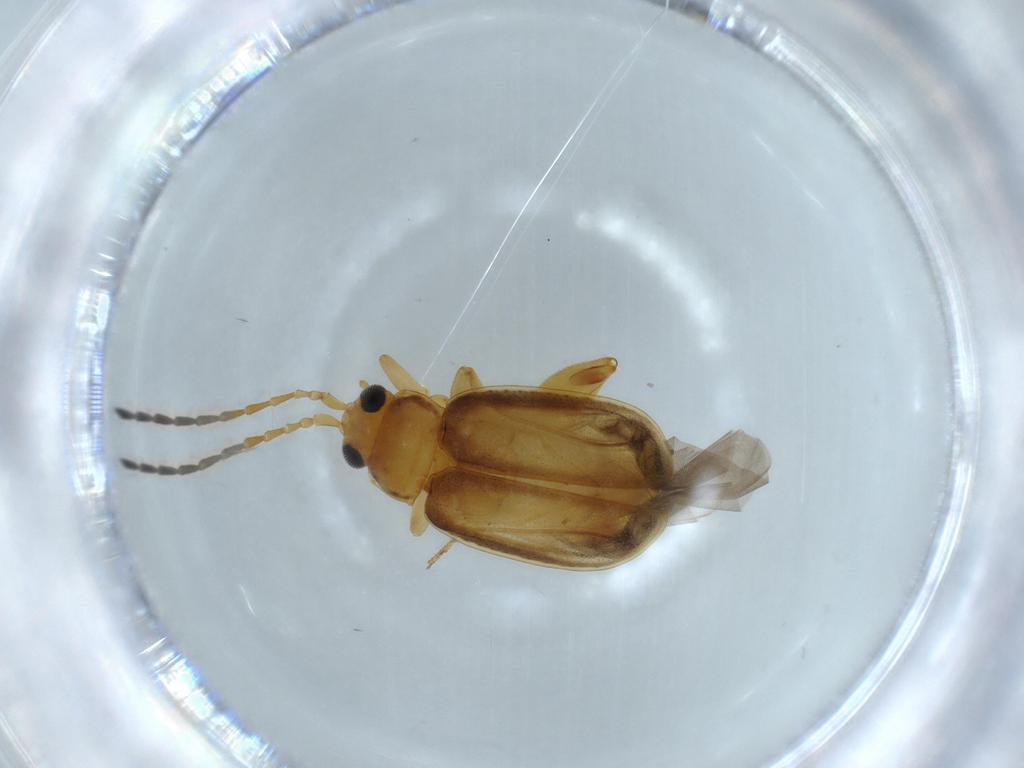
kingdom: Animalia
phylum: Arthropoda
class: Insecta
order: Coleoptera
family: Chrysomelidae
